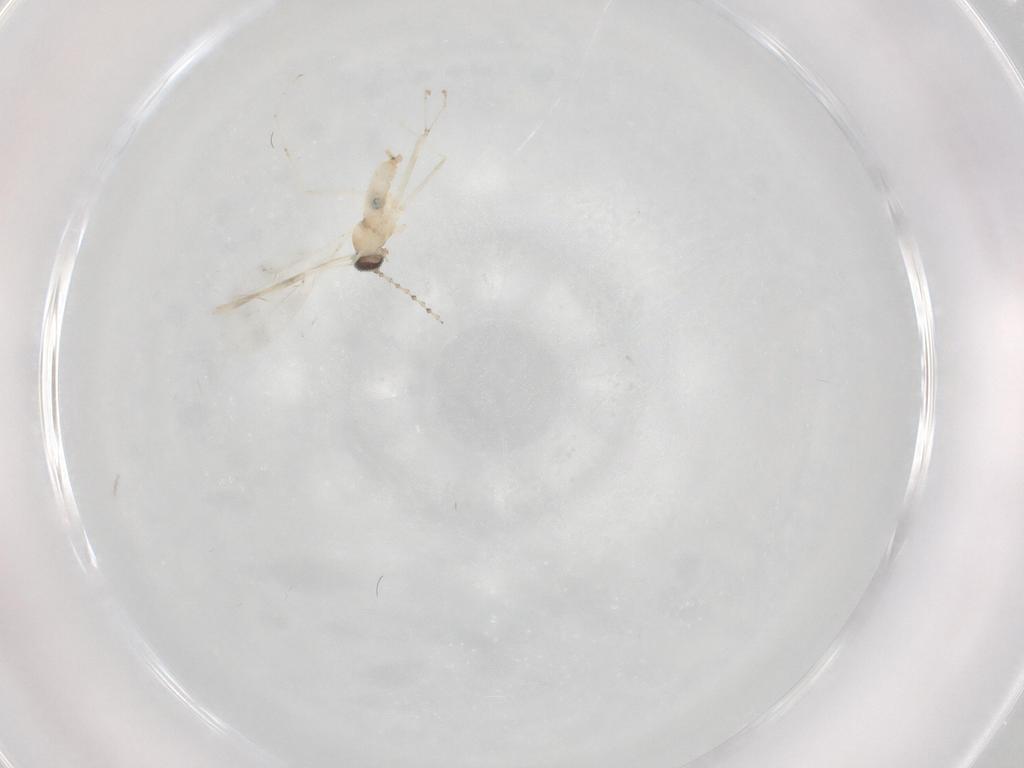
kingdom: Animalia
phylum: Arthropoda
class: Insecta
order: Diptera
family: Cecidomyiidae
